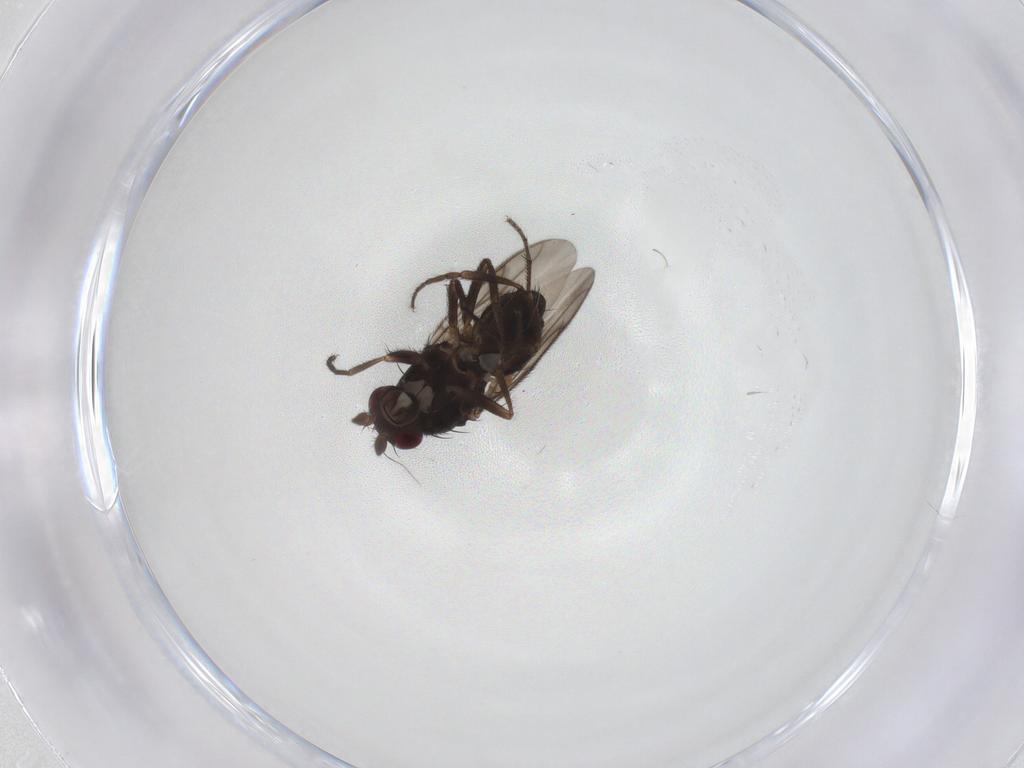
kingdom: Animalia
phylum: Arthropoda
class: Insecta
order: Diptera
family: Sphaeroceridae
